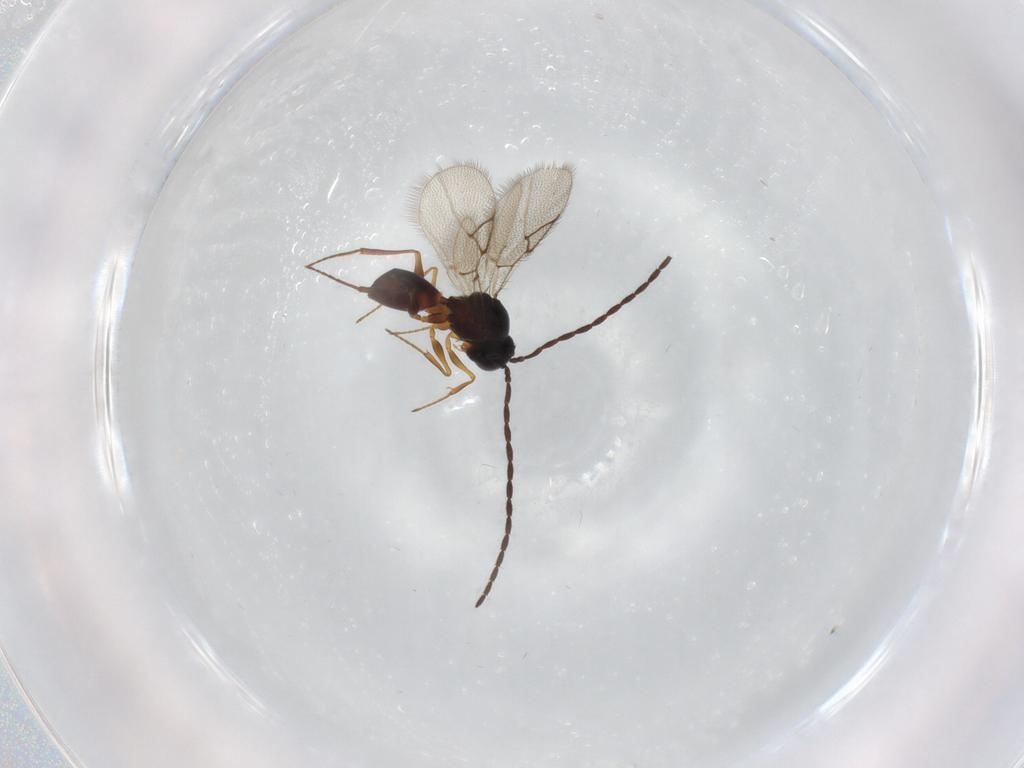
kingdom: Animalia
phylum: Arthropoda
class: Insecta
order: Hymenoptera
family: Figitidae
